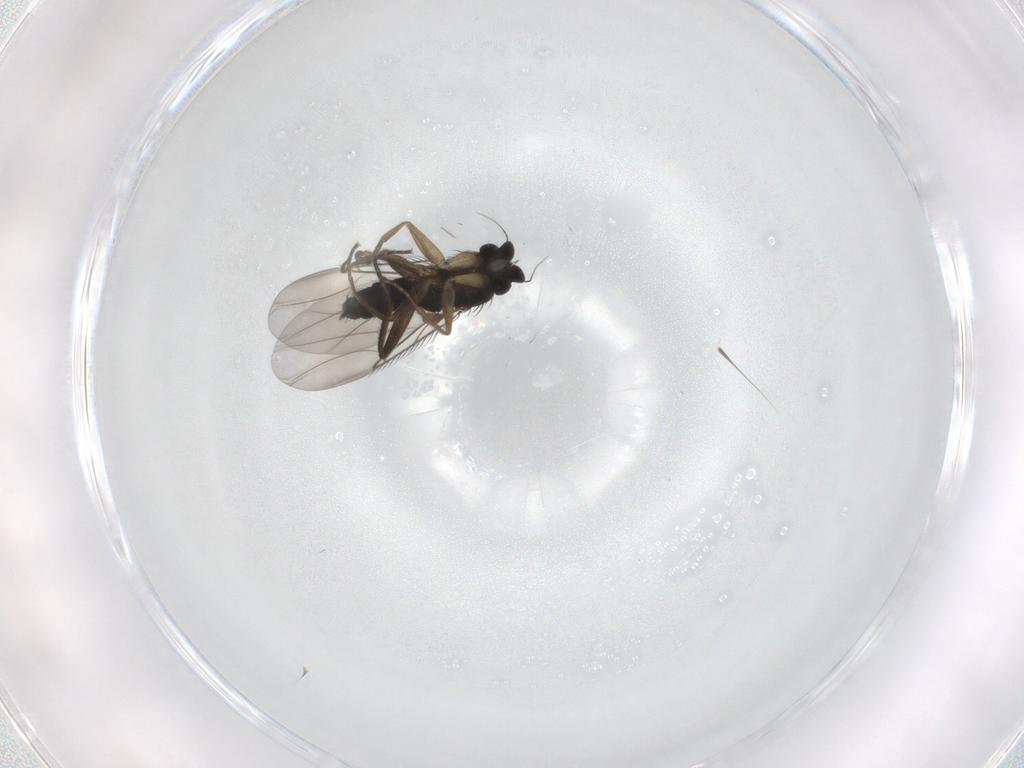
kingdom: Animalia
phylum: Arthropoda
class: Insecta
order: Diptera
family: Phoridae
